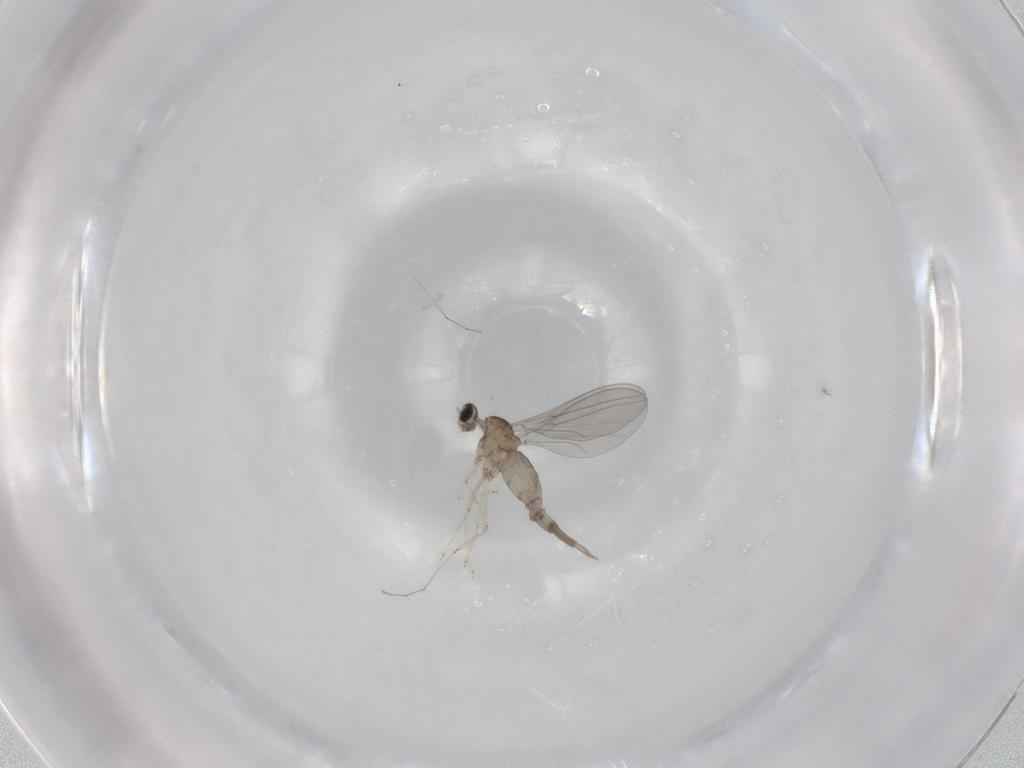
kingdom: Animalia
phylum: Arthropoda
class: Insecta
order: Diptera
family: Cecidomyiidae
